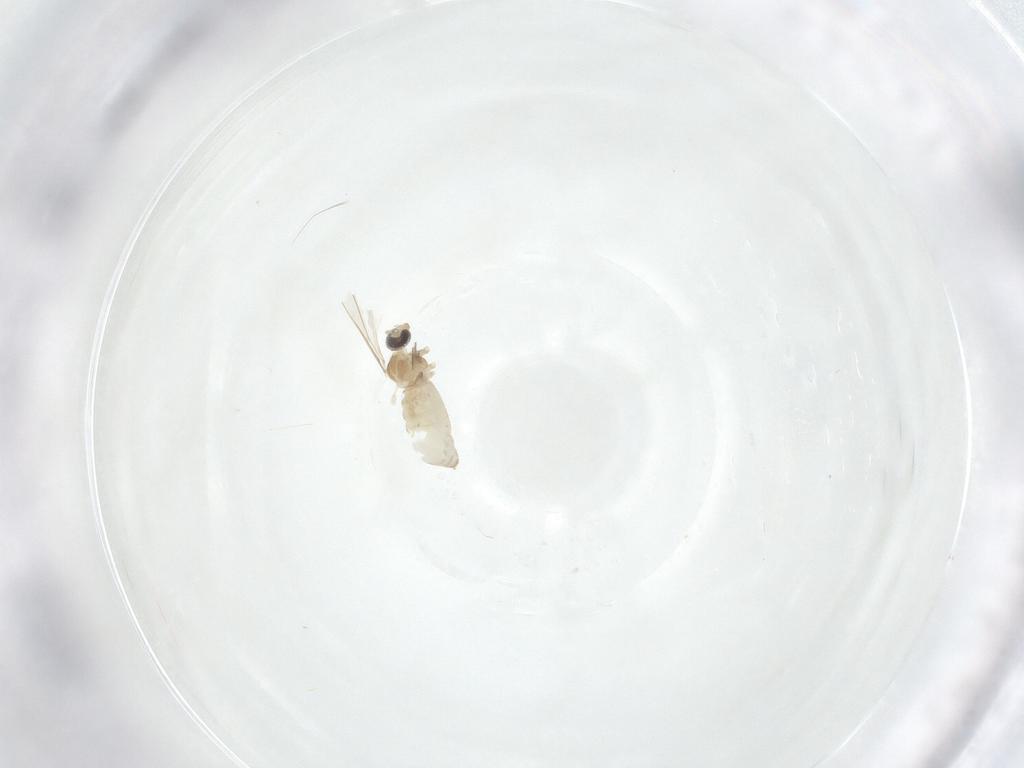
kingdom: Animalia
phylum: Arthropoda
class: Insecta
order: Diptera
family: Cecidomyiidae
